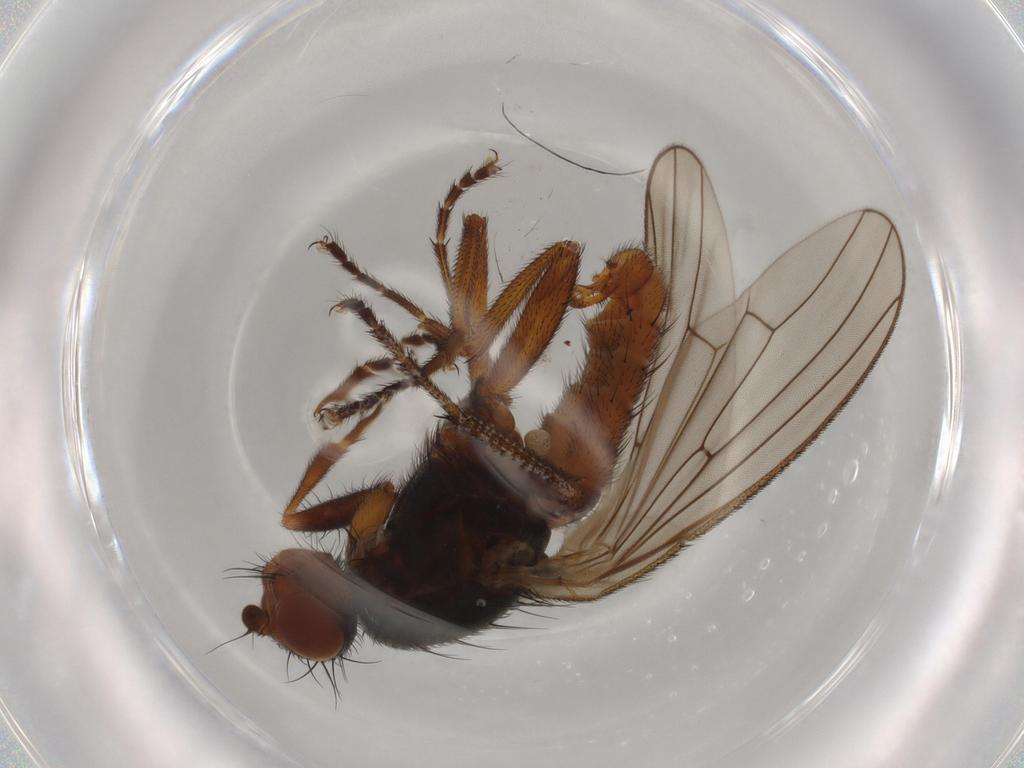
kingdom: Animalia
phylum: Arthropoda
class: Insecta
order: Diptera
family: Heleomyzidae
